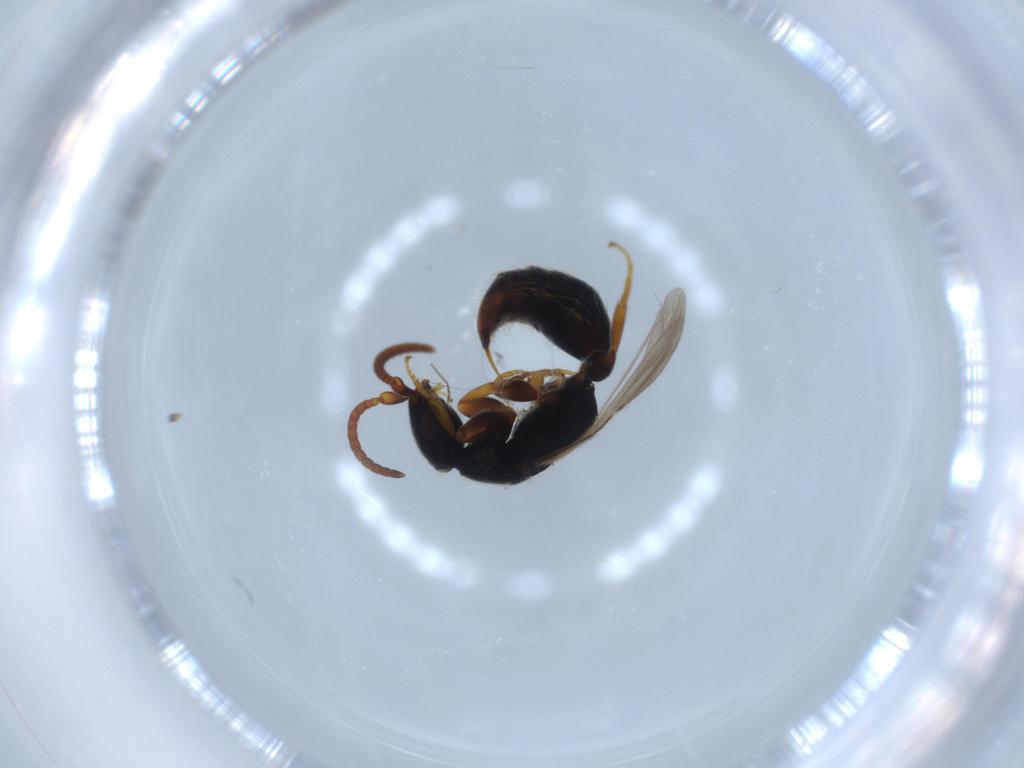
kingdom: Animalia
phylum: Arthropoda
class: Insecta
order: Hymenoptera
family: Bethylidae
